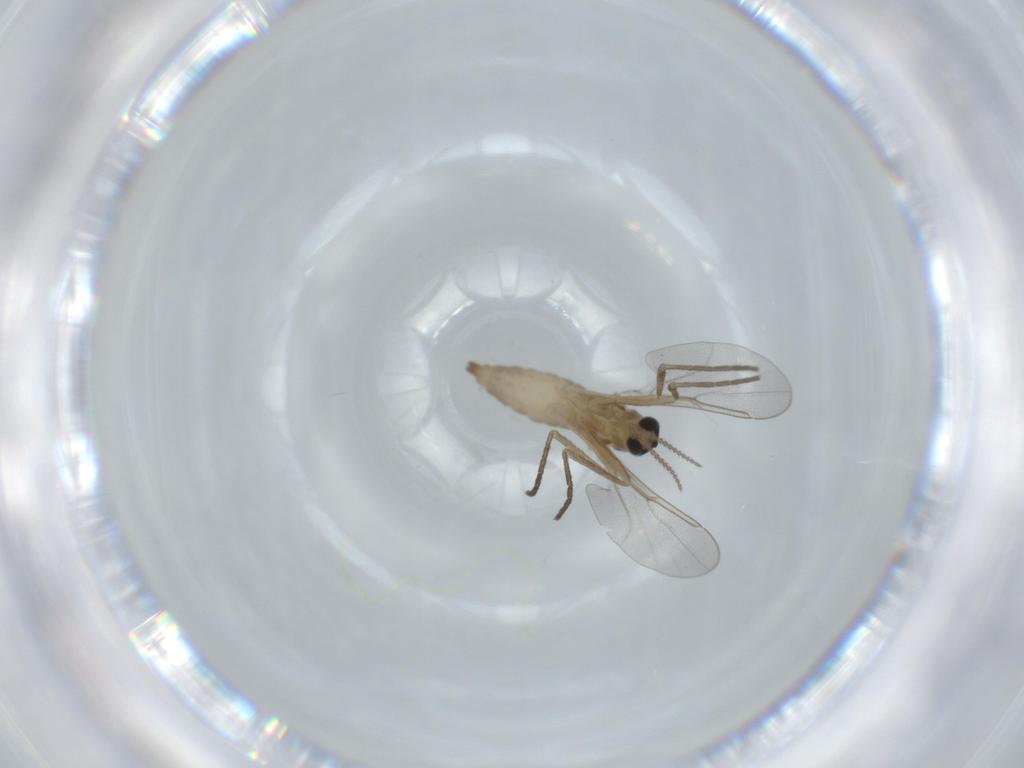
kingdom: Animalia
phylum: Arthropoda
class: Insecta
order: Diptera
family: Cecidomyiidae
